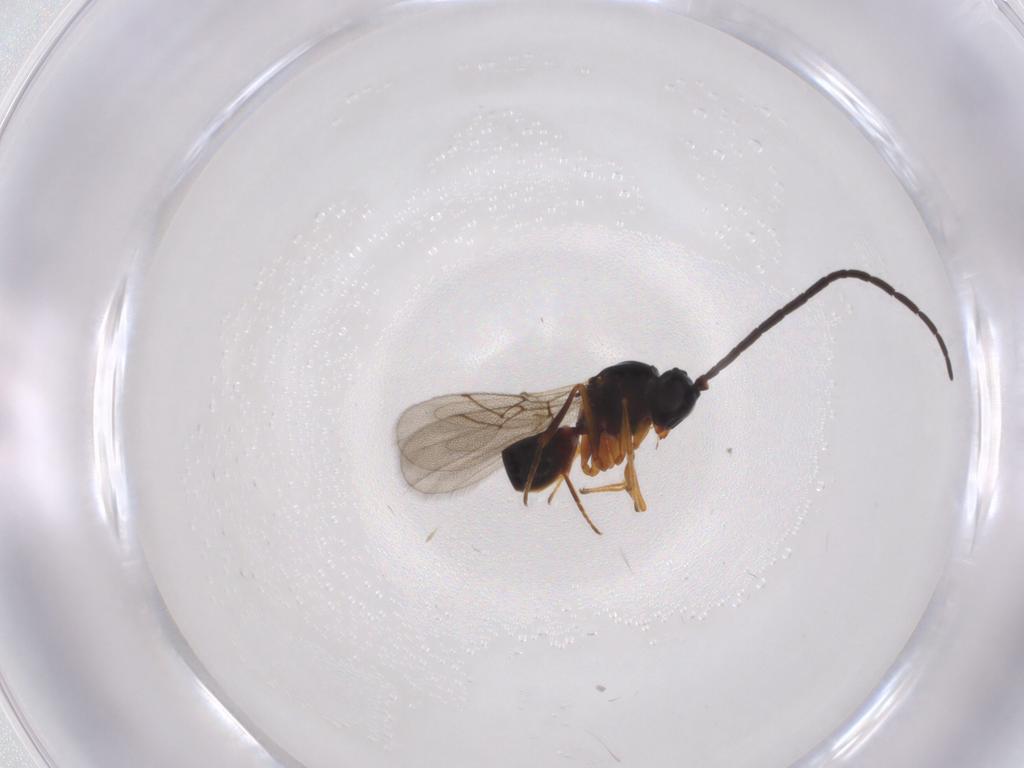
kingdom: Animalia
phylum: Arthropoda
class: Insecta
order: Hymenoptera
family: Figitidae
